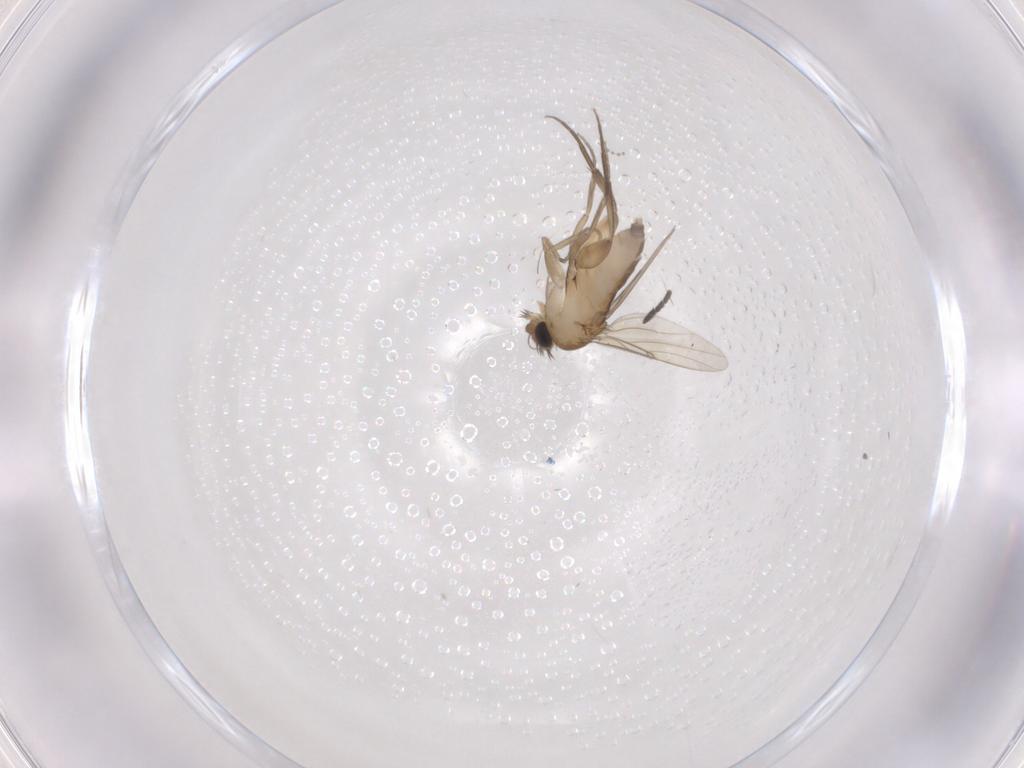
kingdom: Animalia
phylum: Arthropoda
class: Insecta
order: Diptera
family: Phoridae
